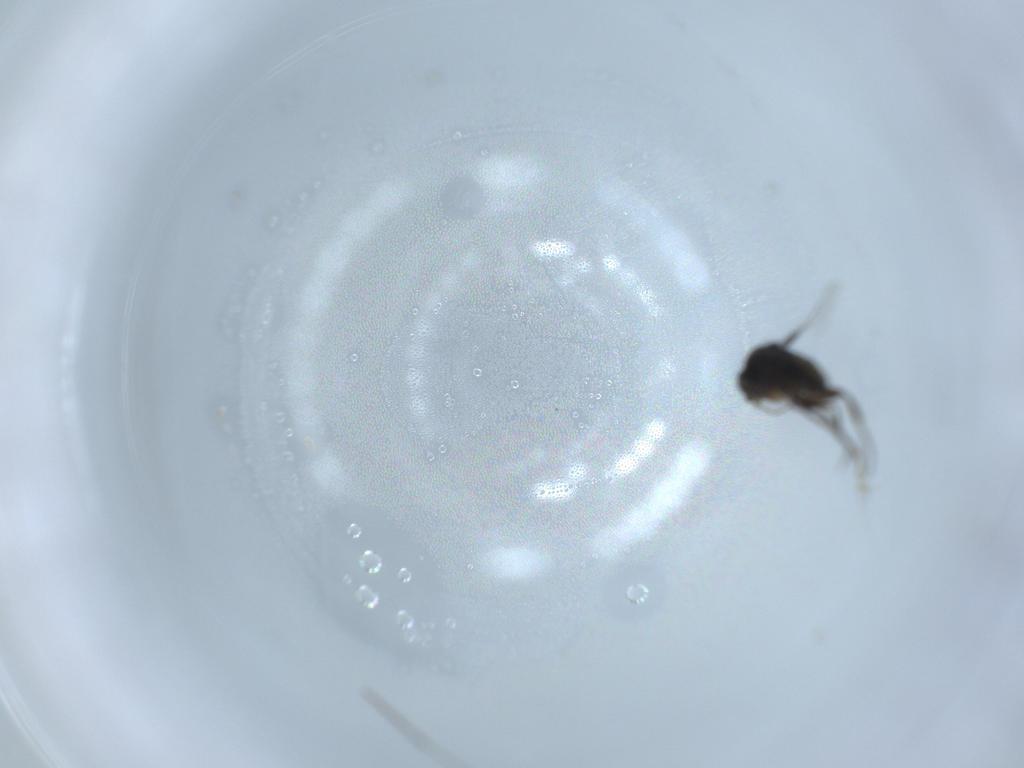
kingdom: Animalia
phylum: Arthropoda
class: Insecta
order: Diptera
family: Phoridae
